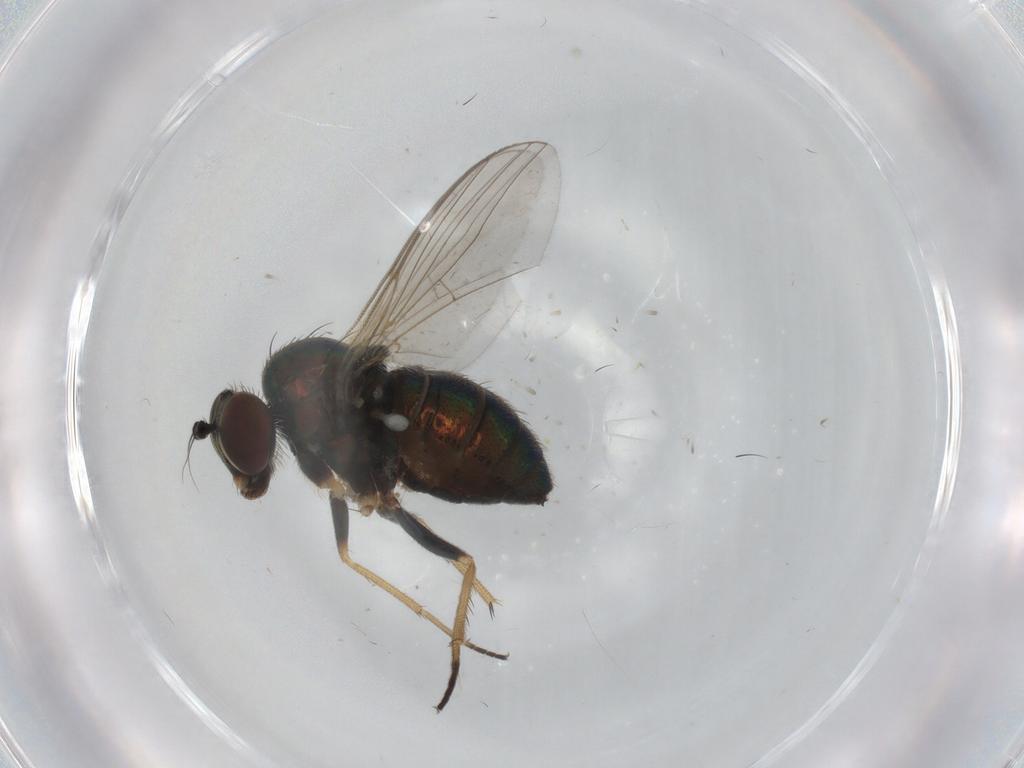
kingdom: Animalia
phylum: Arthropoda
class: Insecta
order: Diptera
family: Ceratopogonidae
